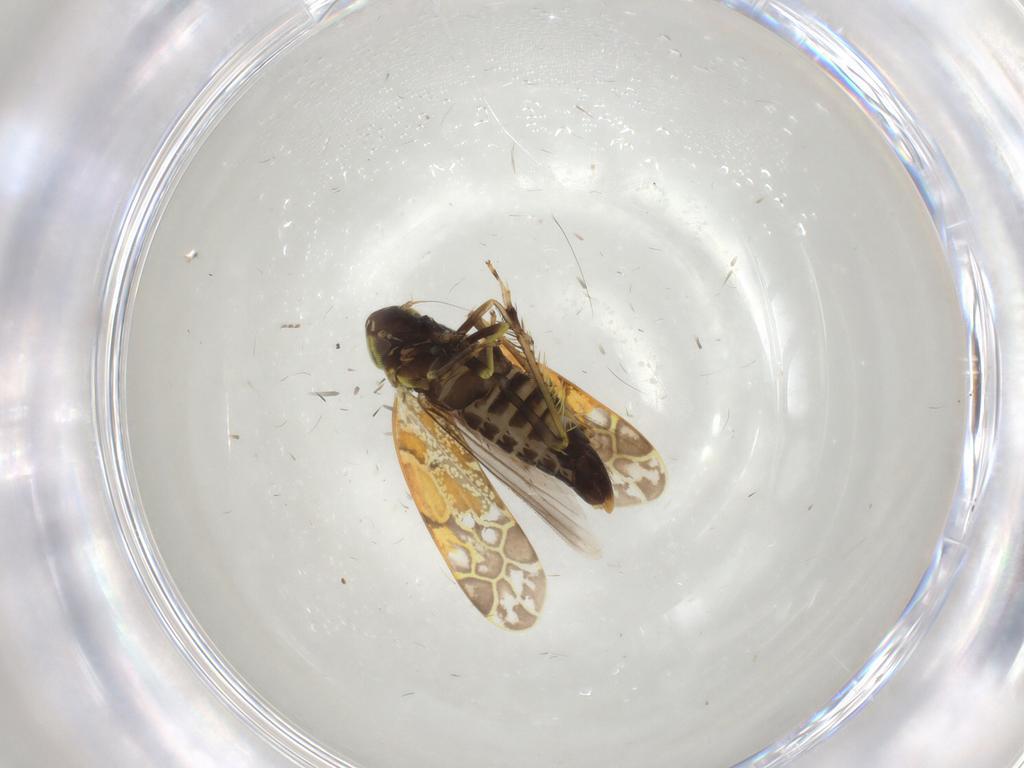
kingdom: Animalia
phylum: Arthropoda
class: Insecta
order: Hemiptera
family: Cicadellidae
